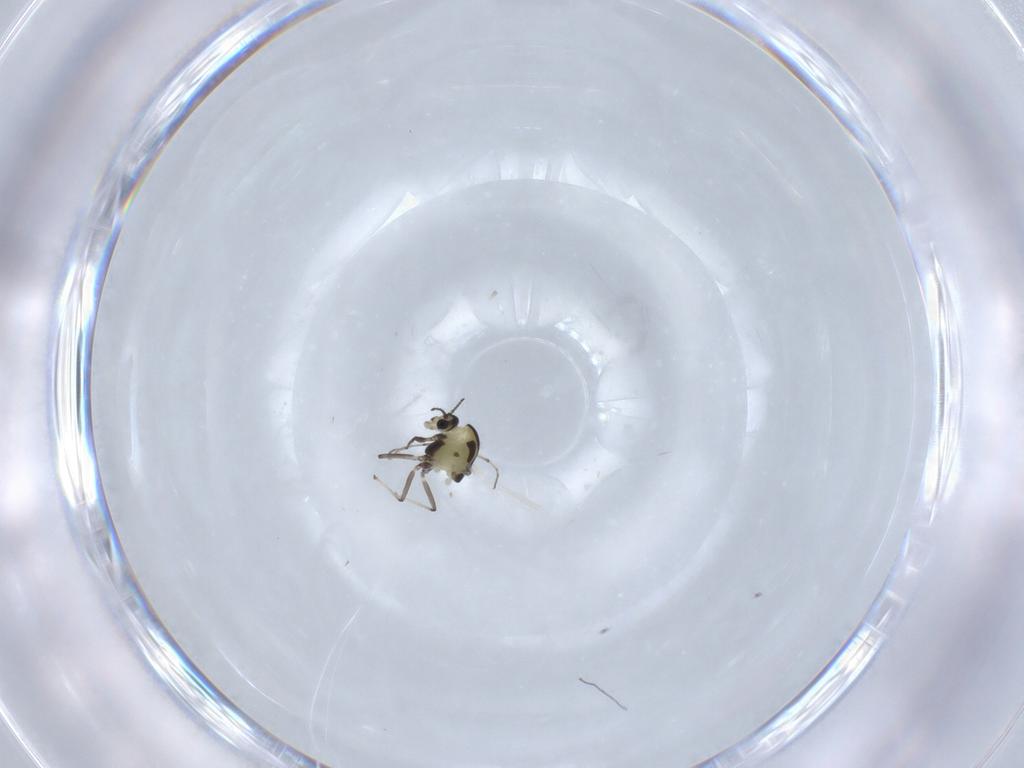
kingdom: Animalia
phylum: Arthropoda
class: Insecta
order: Diptera
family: Chironomidae
